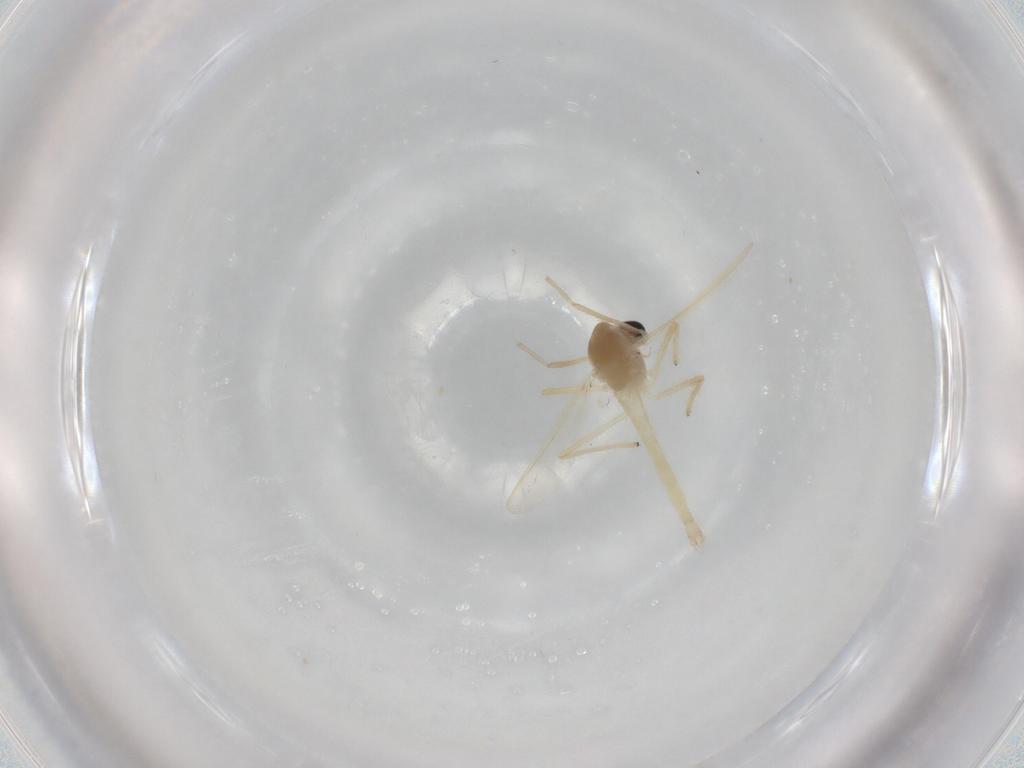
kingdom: Animalia
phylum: Arthropoda
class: Insecta
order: Diptera
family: Chironomidae
